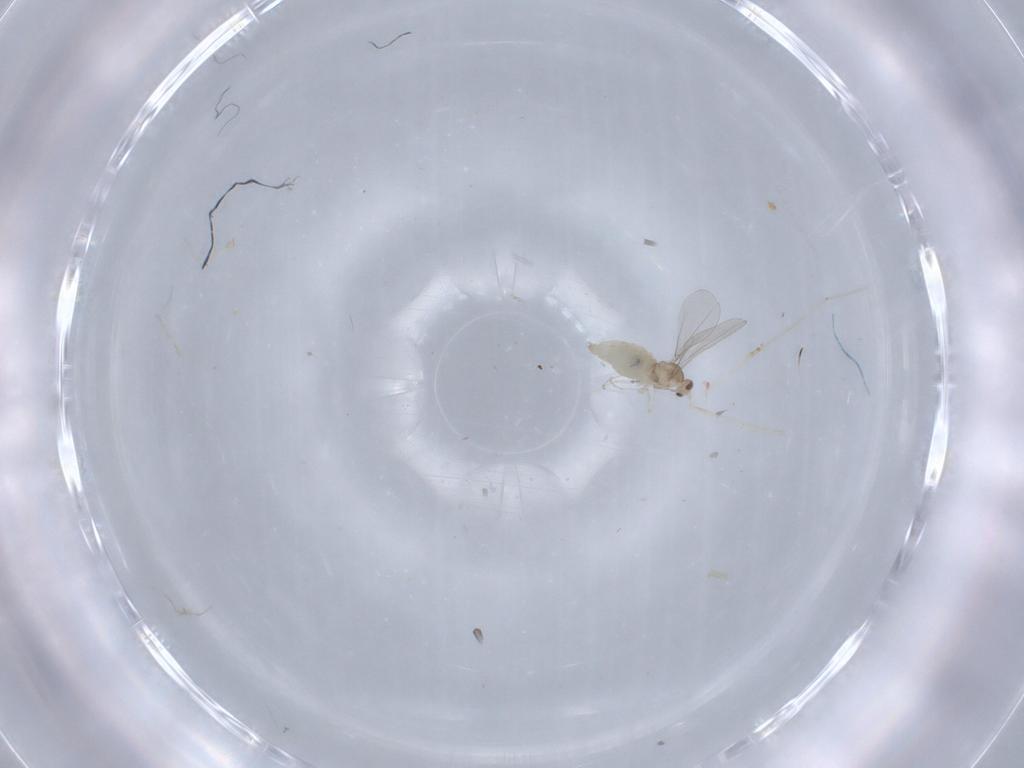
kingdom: Animalia
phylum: Arthropoda
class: Insecta
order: Diptera
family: Cecidomyiidae
